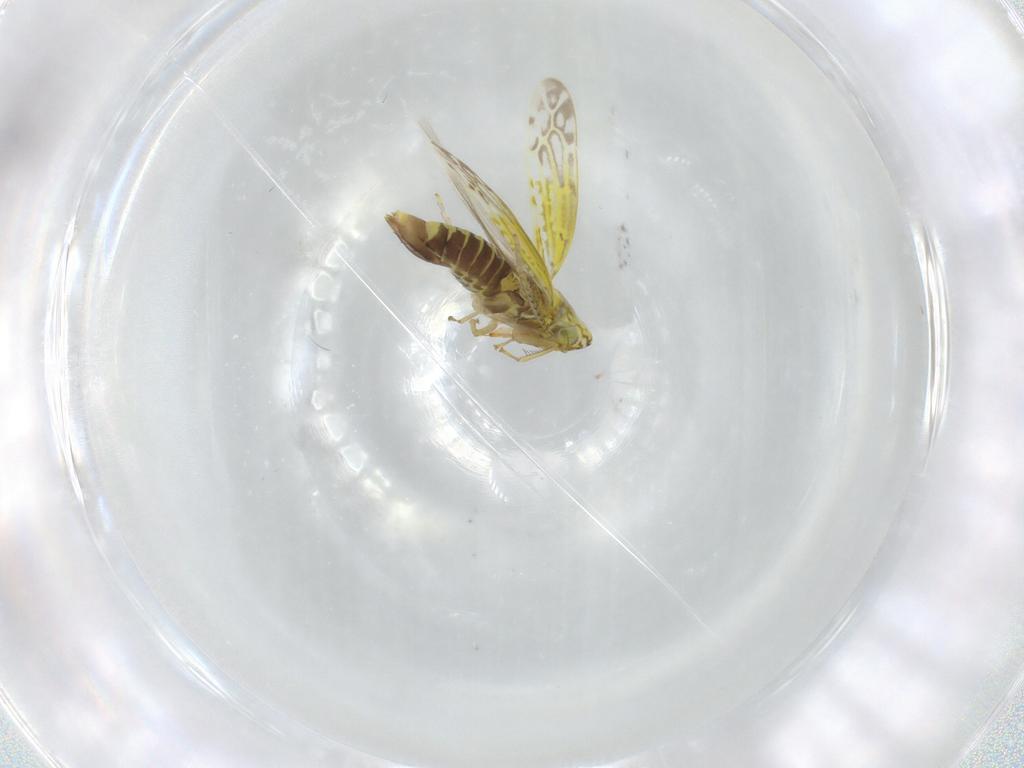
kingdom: Animalia
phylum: Arthropoda
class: Insecta
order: Hemiptera
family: Cicadellidae
